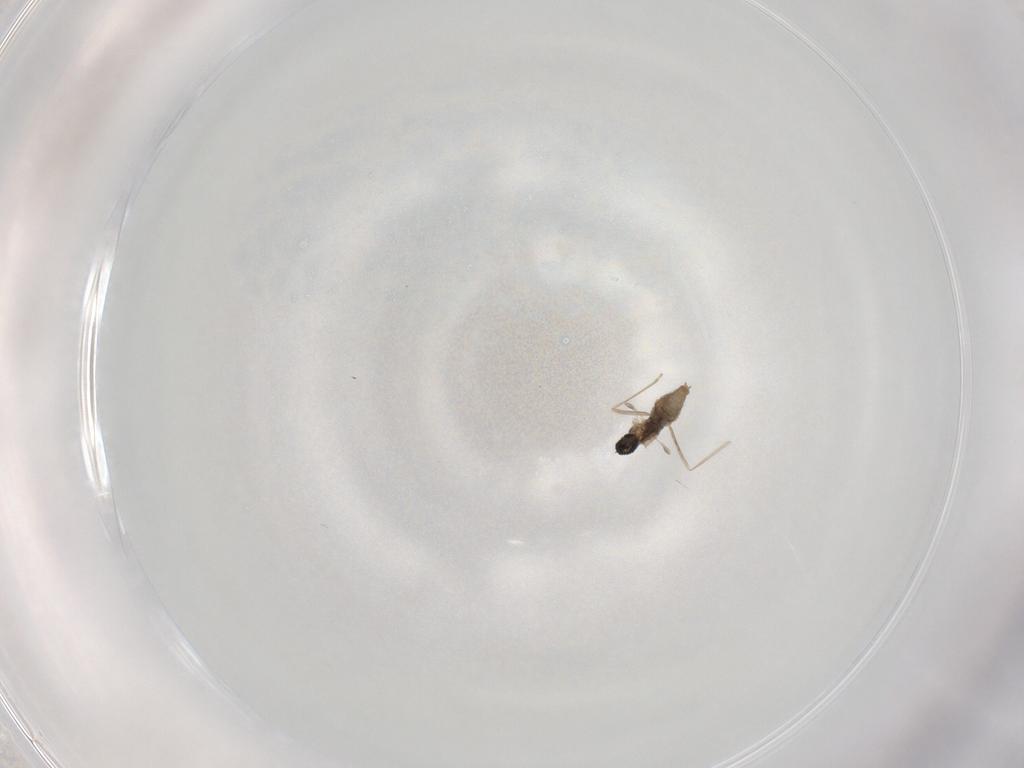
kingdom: Animalia
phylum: Arthropoda
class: Insecta
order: Diptera
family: Cecidomyiidae
